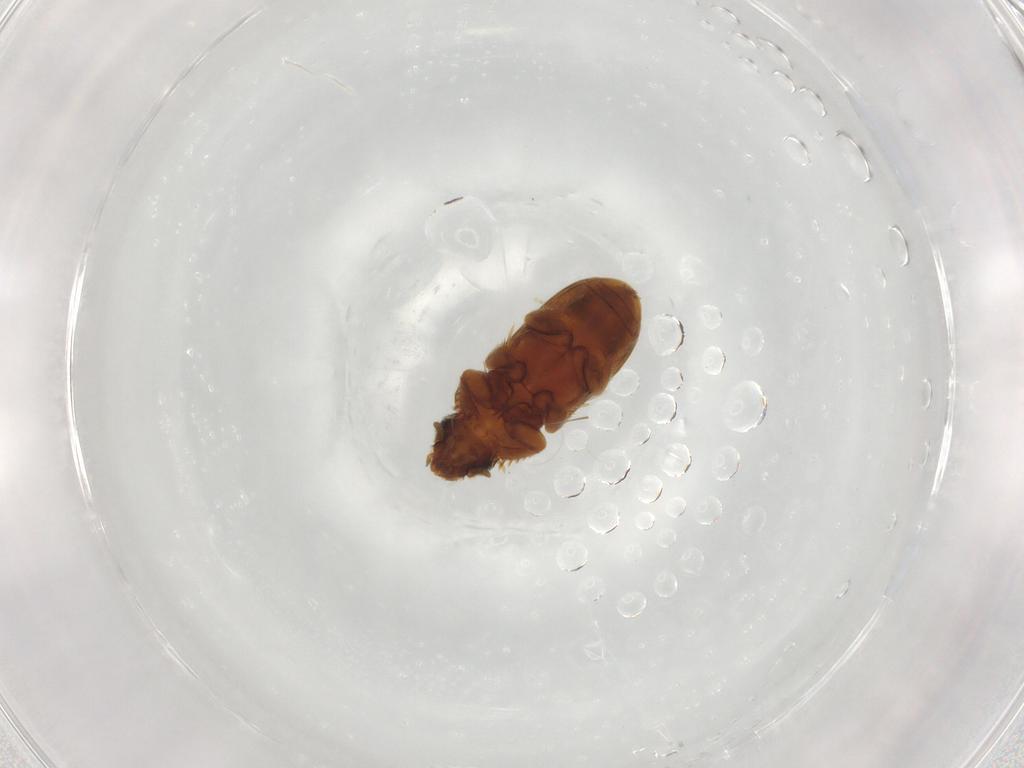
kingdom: Animalia
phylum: Arthropoda
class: Insecta
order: Coleoptera
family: Heteroceridae
